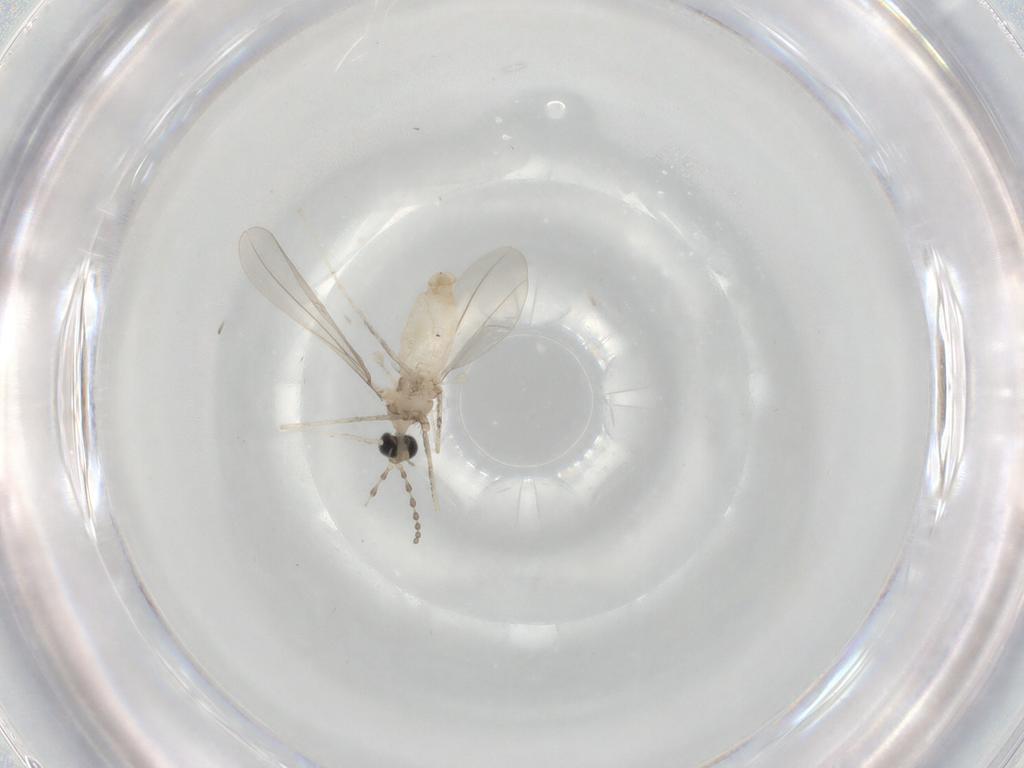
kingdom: Animalia
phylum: Arthropoda
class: Insecta
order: Diptera
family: Cecidomyiidae
